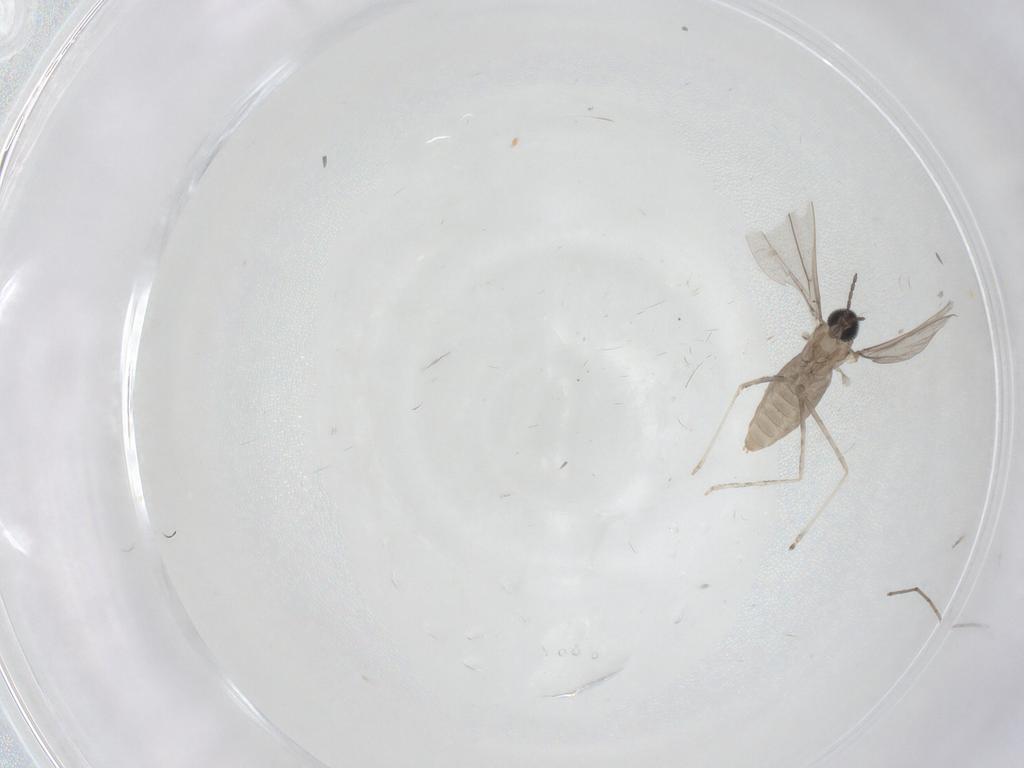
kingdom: Animalia
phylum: Arthropoda
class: Insecta
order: Diptera
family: Cecidomyiidae
